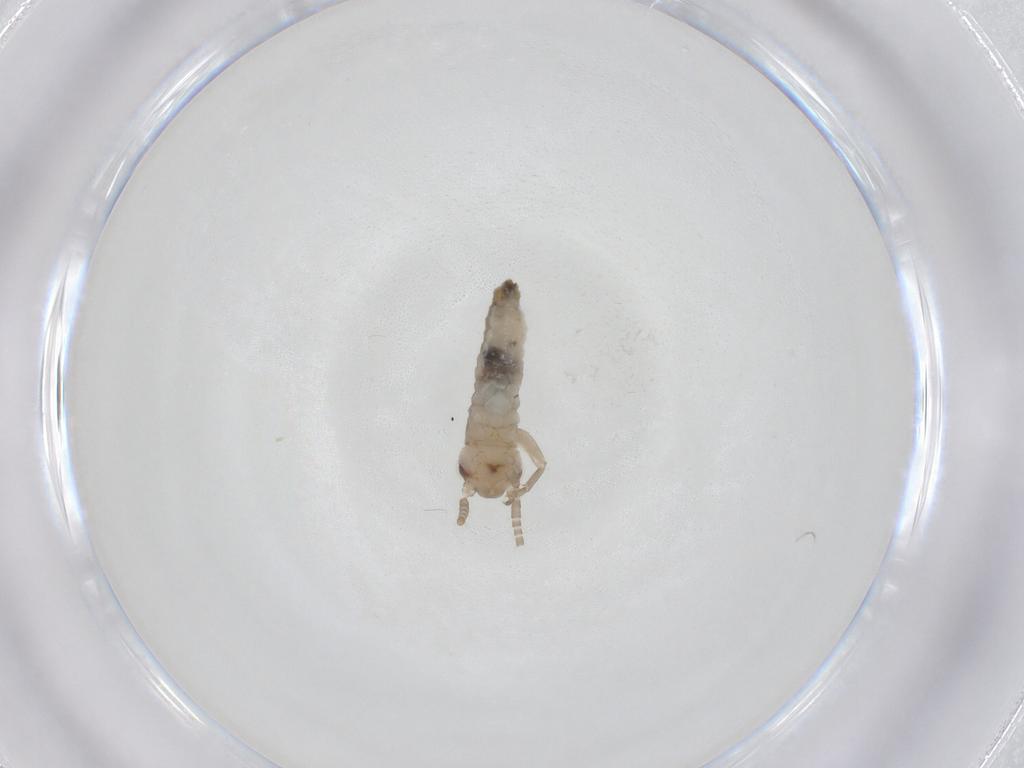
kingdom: Animalia
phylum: Arthropoda
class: Insecta
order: Orthoptera
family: Gryllidae
